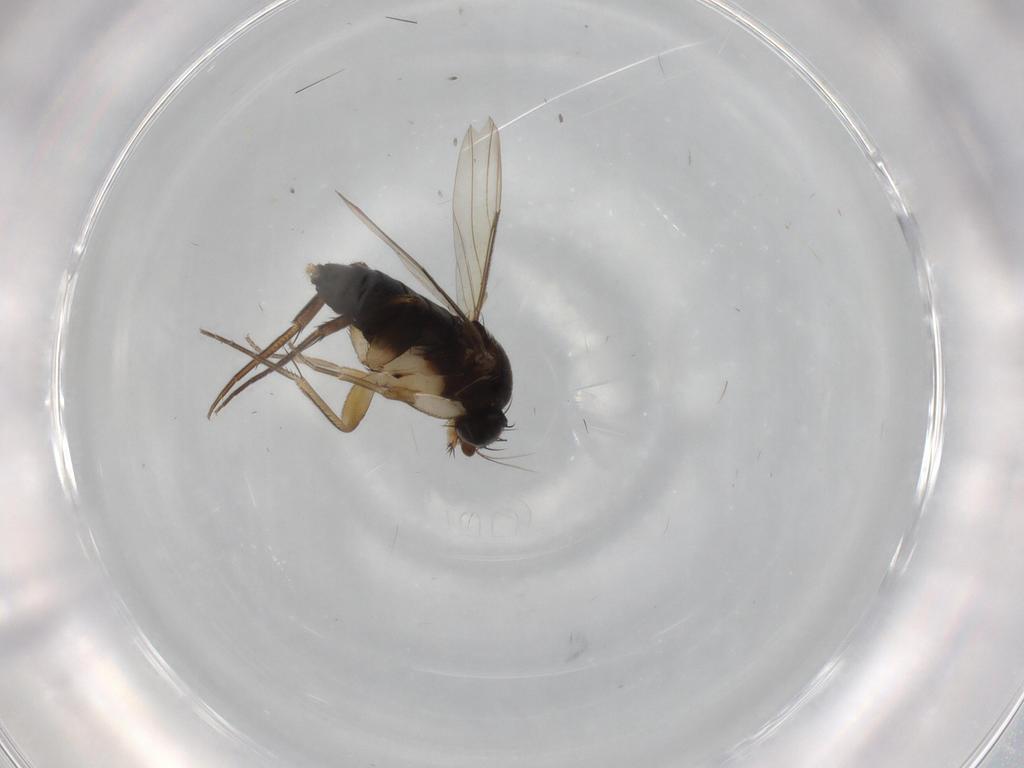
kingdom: Animalia
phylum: Arthropoda
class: Insecta
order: Diptera
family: Phoridae
